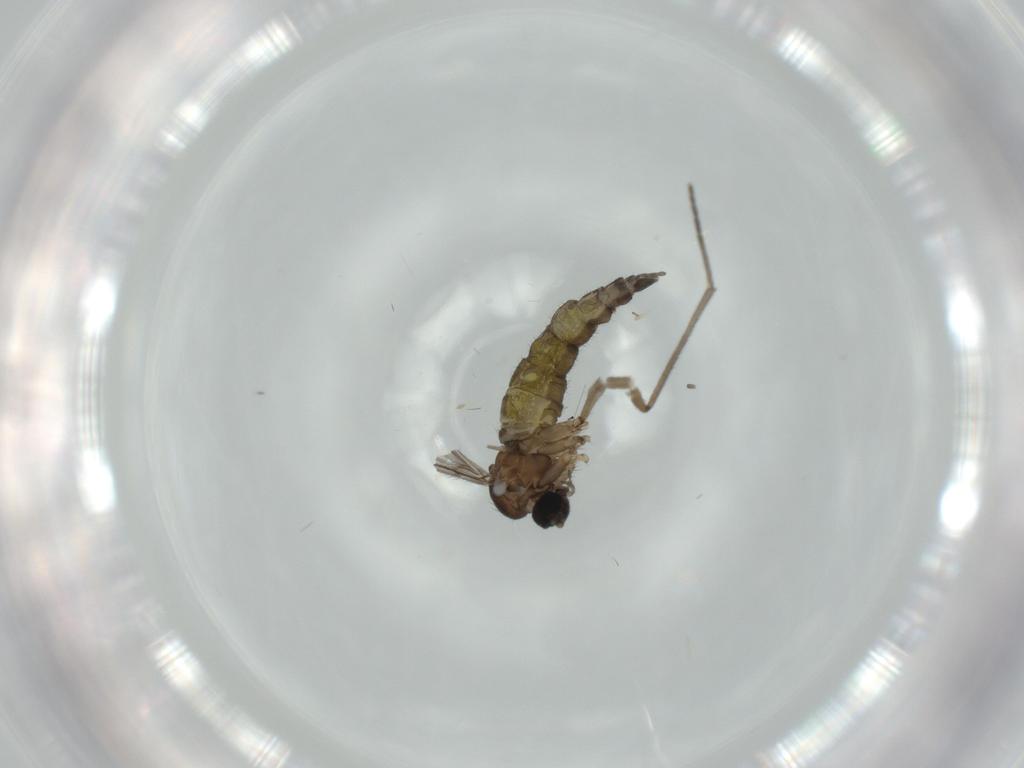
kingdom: Animalia
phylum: Arthropoda
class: Insecta
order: Diptera
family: Sciaridae
